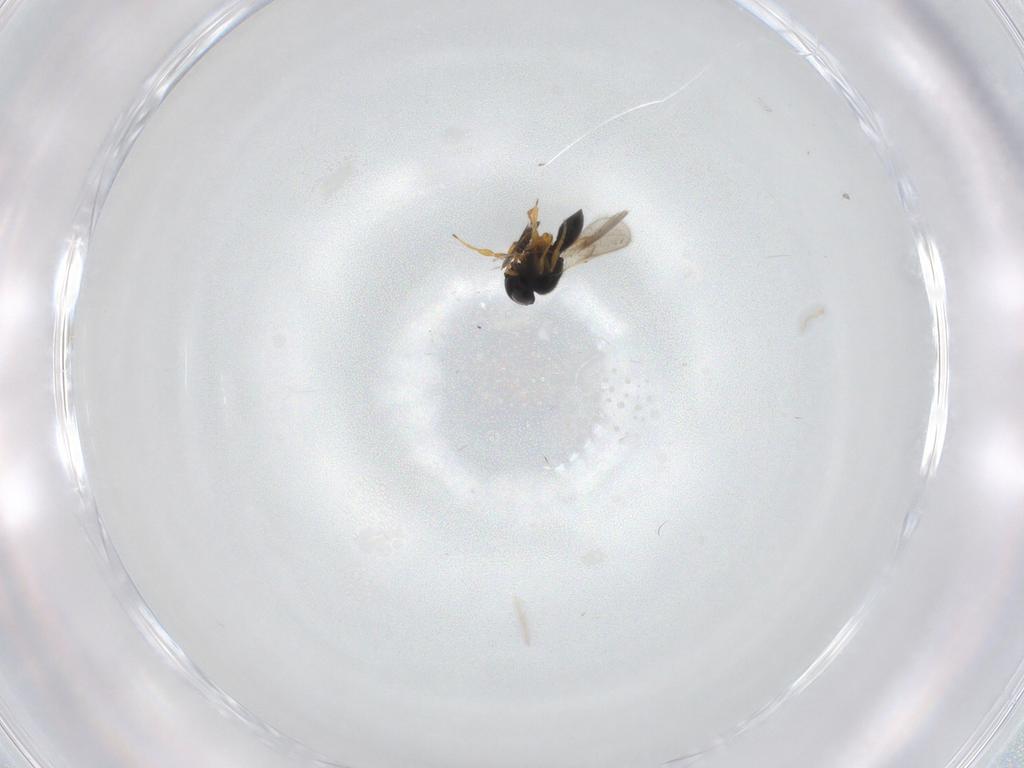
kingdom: Animalia
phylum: Arthropoda
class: Insecta
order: Hymenoptera
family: Scelionidae
